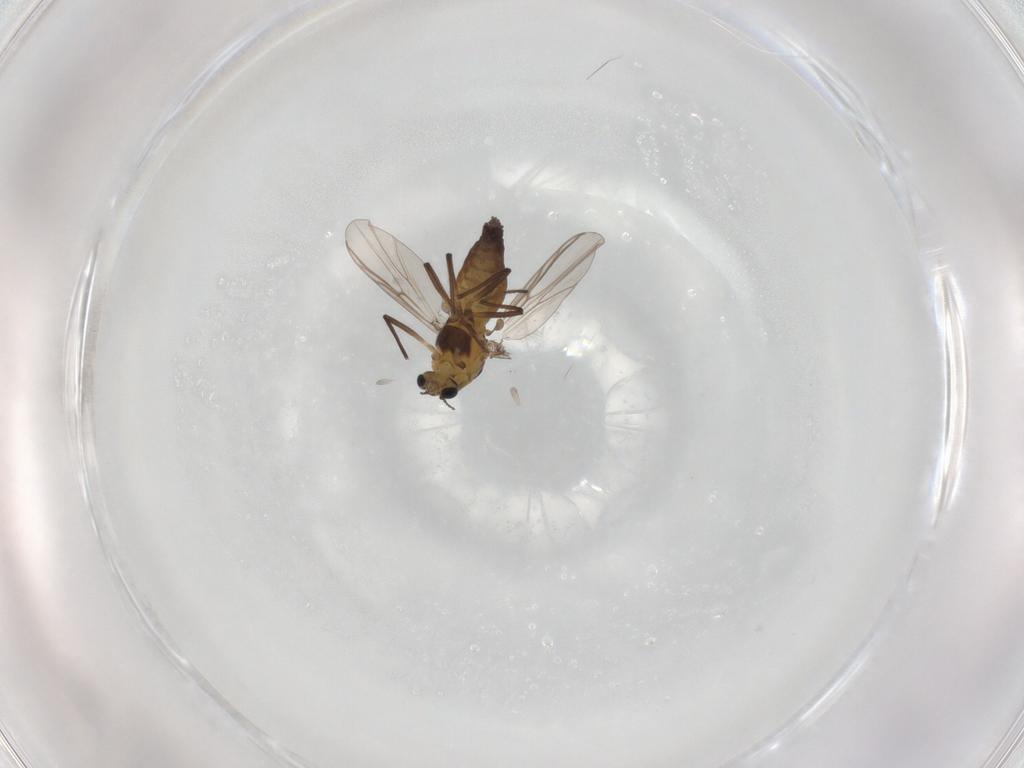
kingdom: Animalia
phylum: Arthropoda
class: Insecta
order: Diptera
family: Chironomidae
